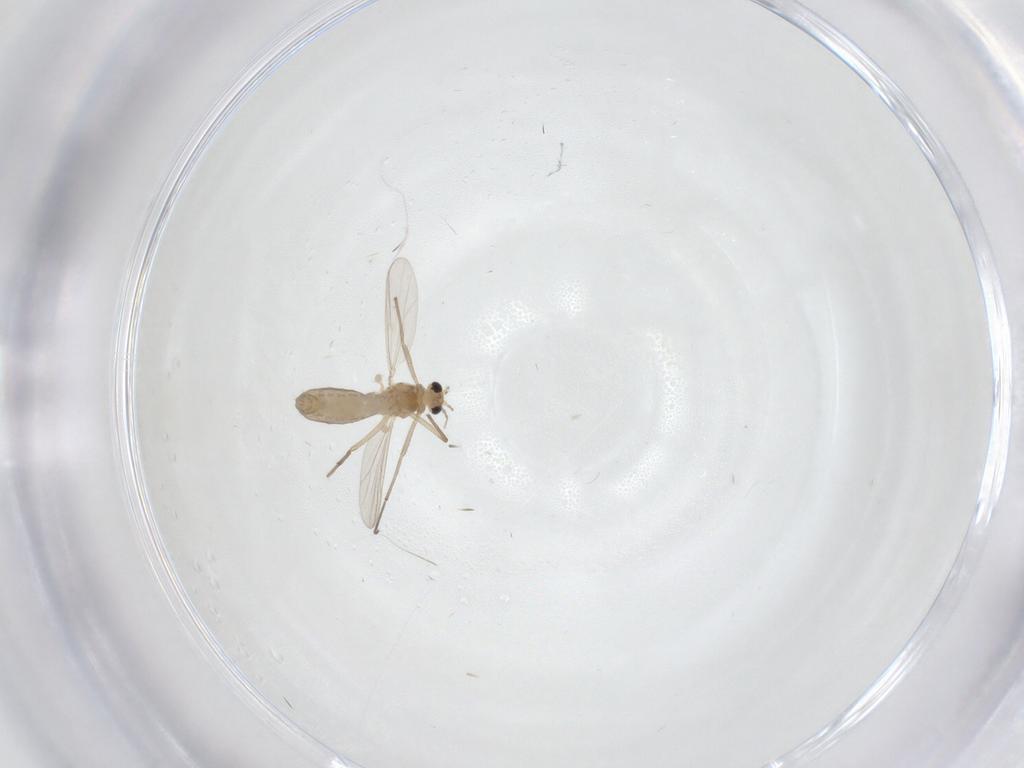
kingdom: Animalia
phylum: Arthropoda
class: Insecta
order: Diptera
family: Chironomidae
